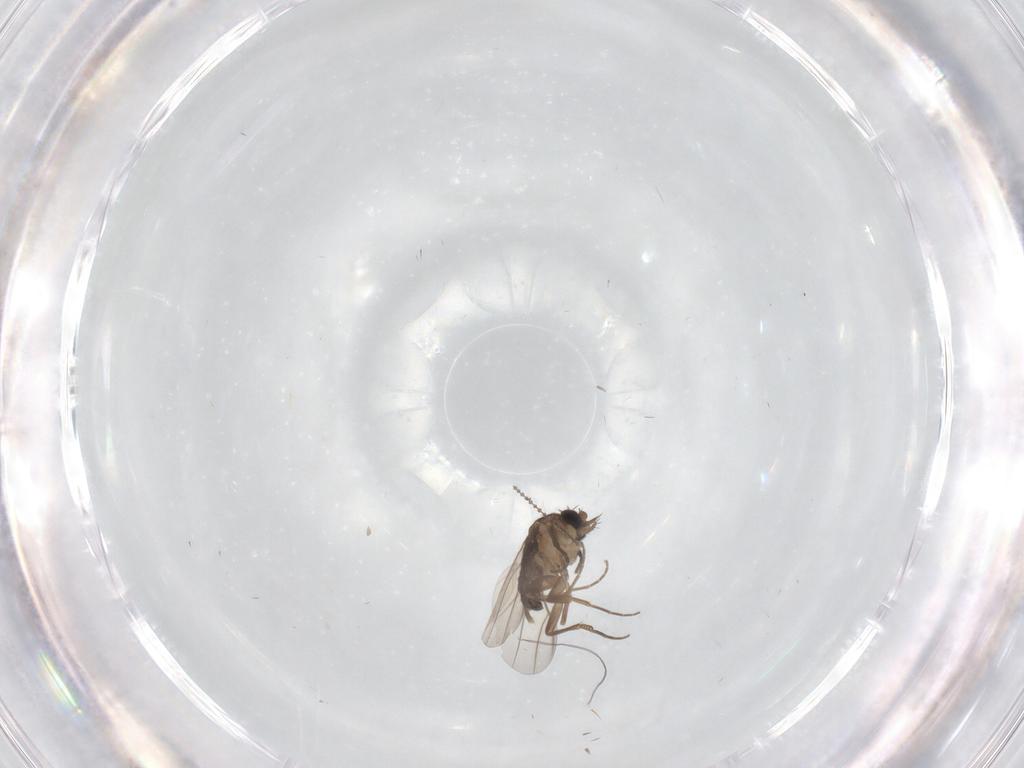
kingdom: Animalia
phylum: Arthropoda
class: Insecta
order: Diptera
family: Phoridae
